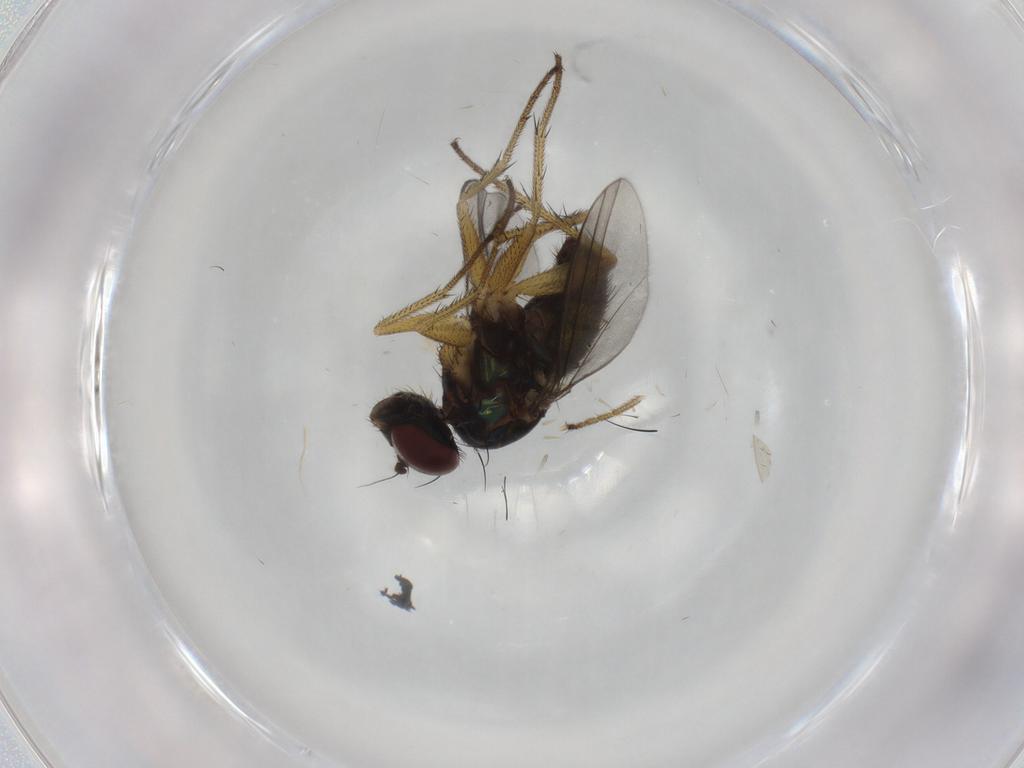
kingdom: Animalia
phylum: Arthropoda
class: Insecta
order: Diptera
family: Dolichopodidae
